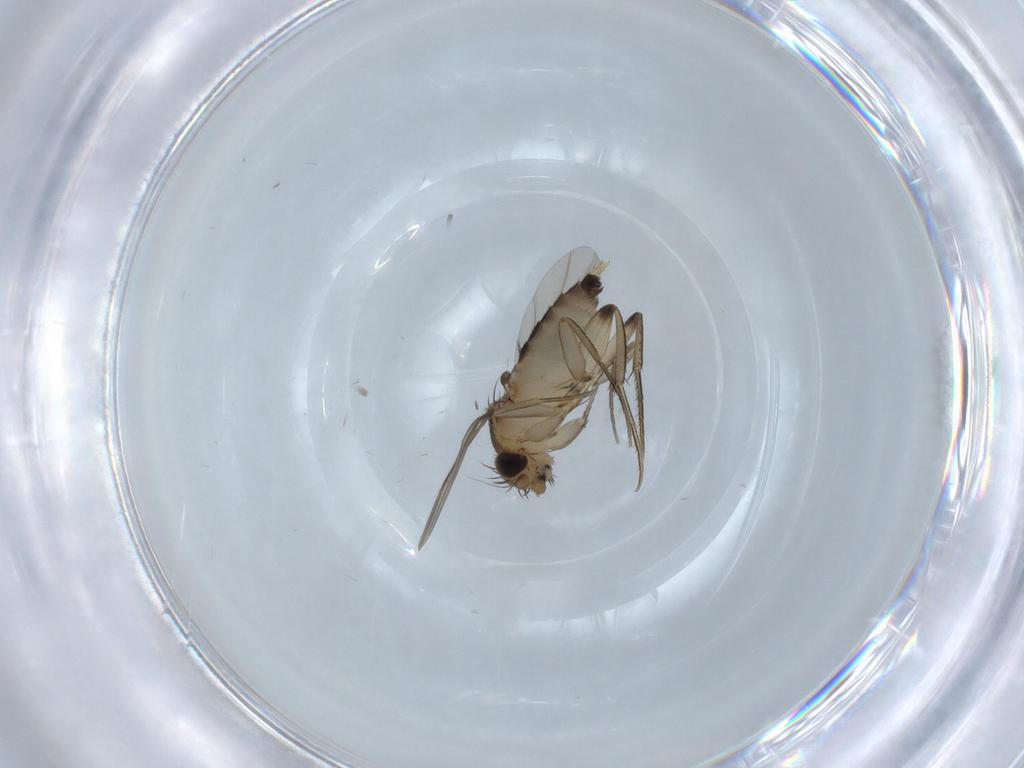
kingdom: Animalia
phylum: Arthropoda
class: Insecta
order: Diptera
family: Chironomidae
